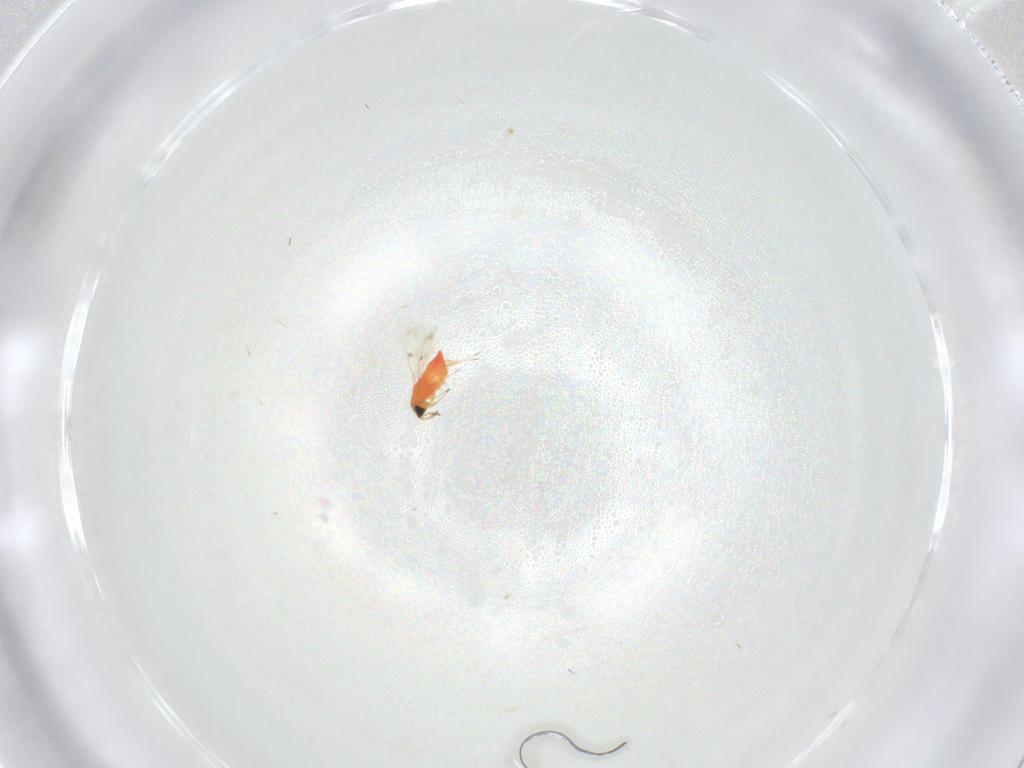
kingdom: Animalia
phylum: Arthropoda
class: Insecta
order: Hymenoptera
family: Trichogrammatidae
